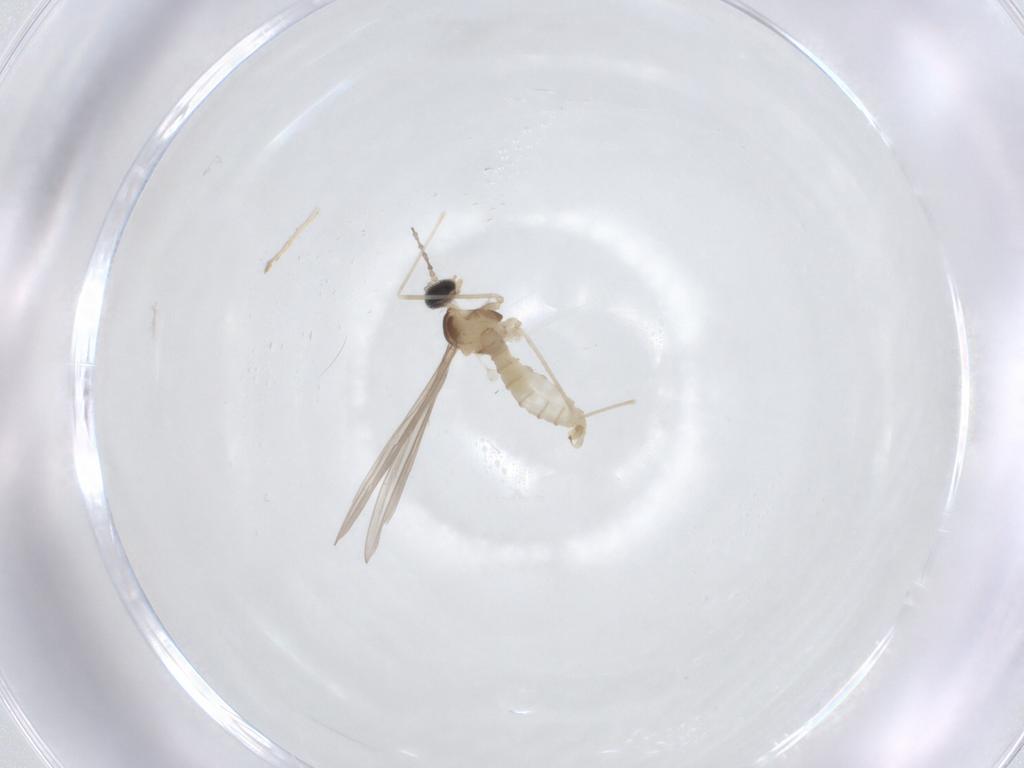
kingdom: Animalia
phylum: Arthropoda
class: Insecta
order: Diptera
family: Cecidomyiidae
